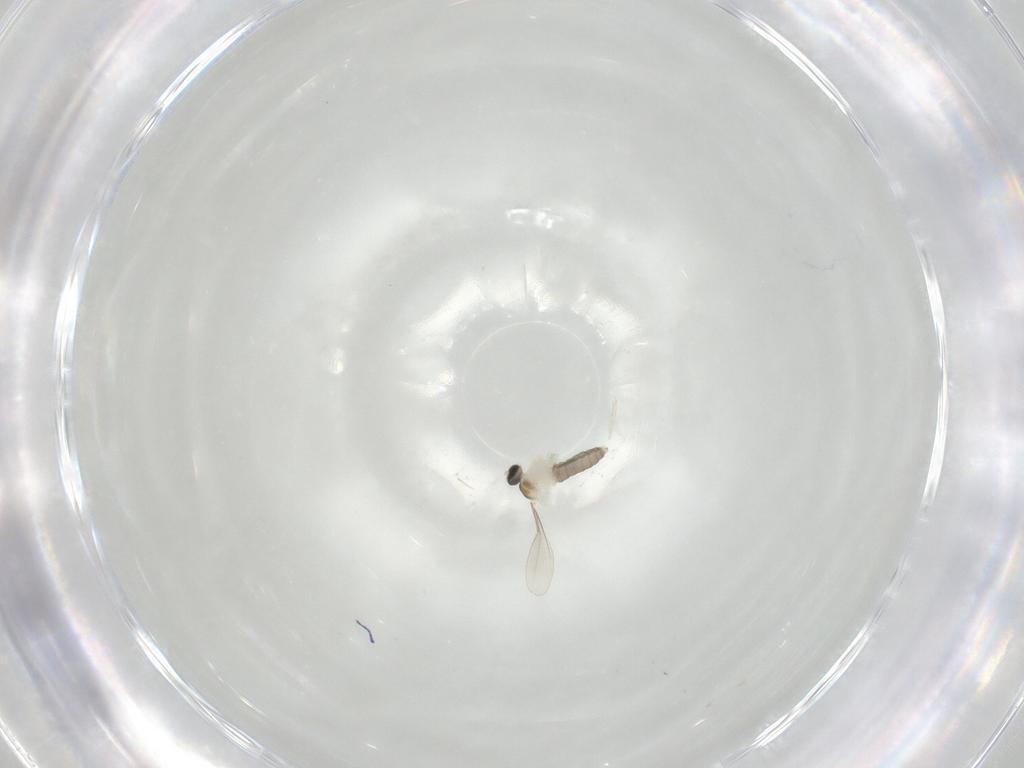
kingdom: Animalia
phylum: Arthropoda
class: Insecta
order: Diptera
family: Cecidomyiidae
